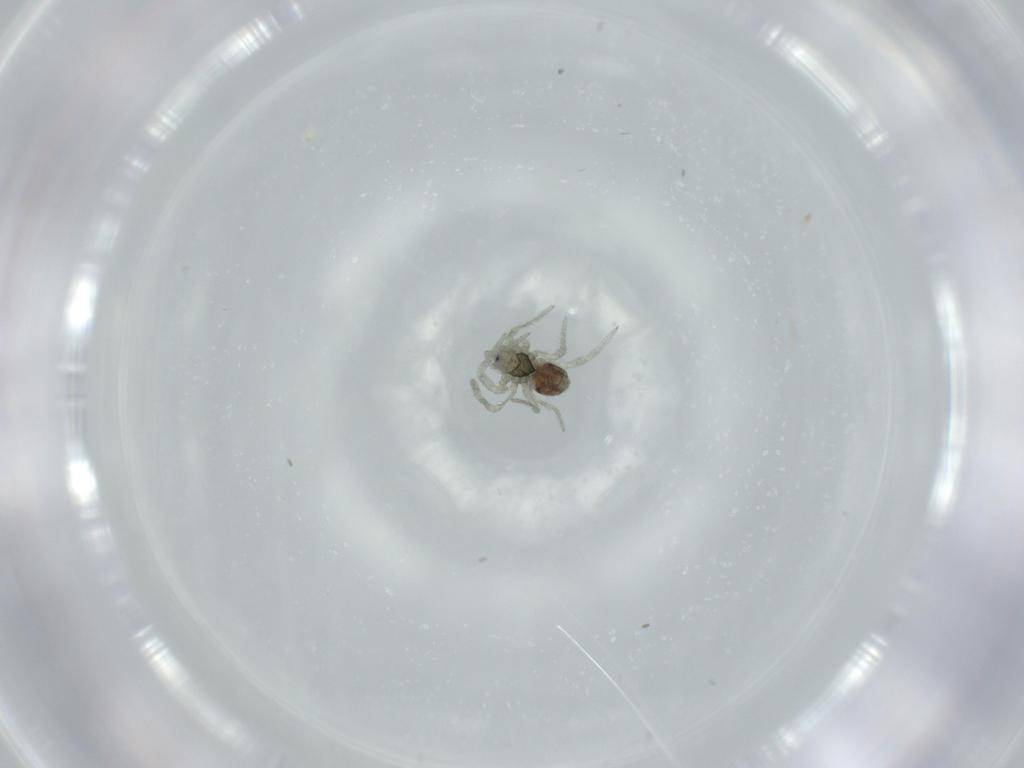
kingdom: Animalia
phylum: Arthropoda
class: Arachnida
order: Araneae
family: Linyphiidae
